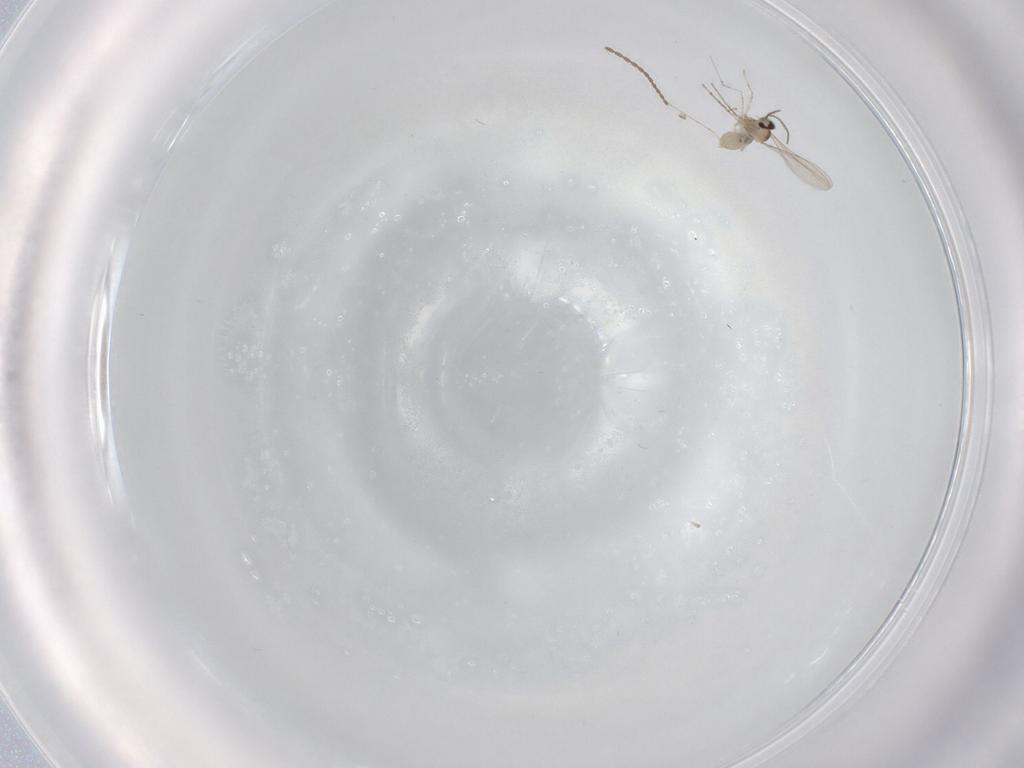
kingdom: Animalia
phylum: Arthropoda
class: Insecta
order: Diptera
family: Cecidomyiidae
